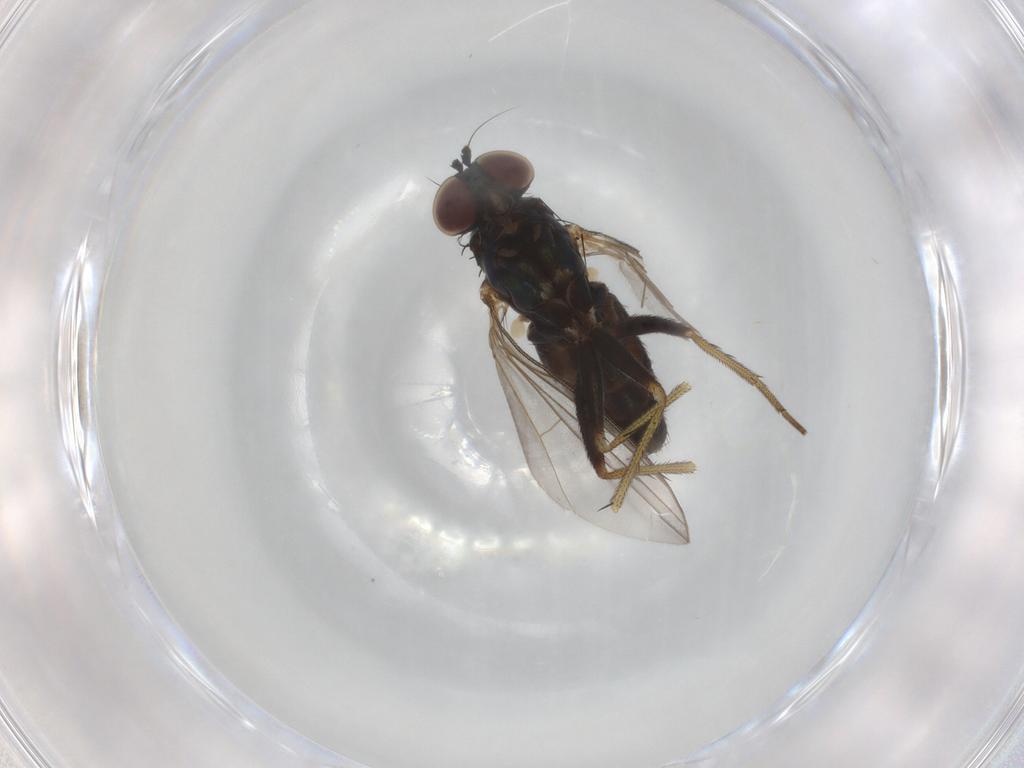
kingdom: Animalia
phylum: Arthropoda
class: Insecta
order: Diptera
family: Dolichopodidae
